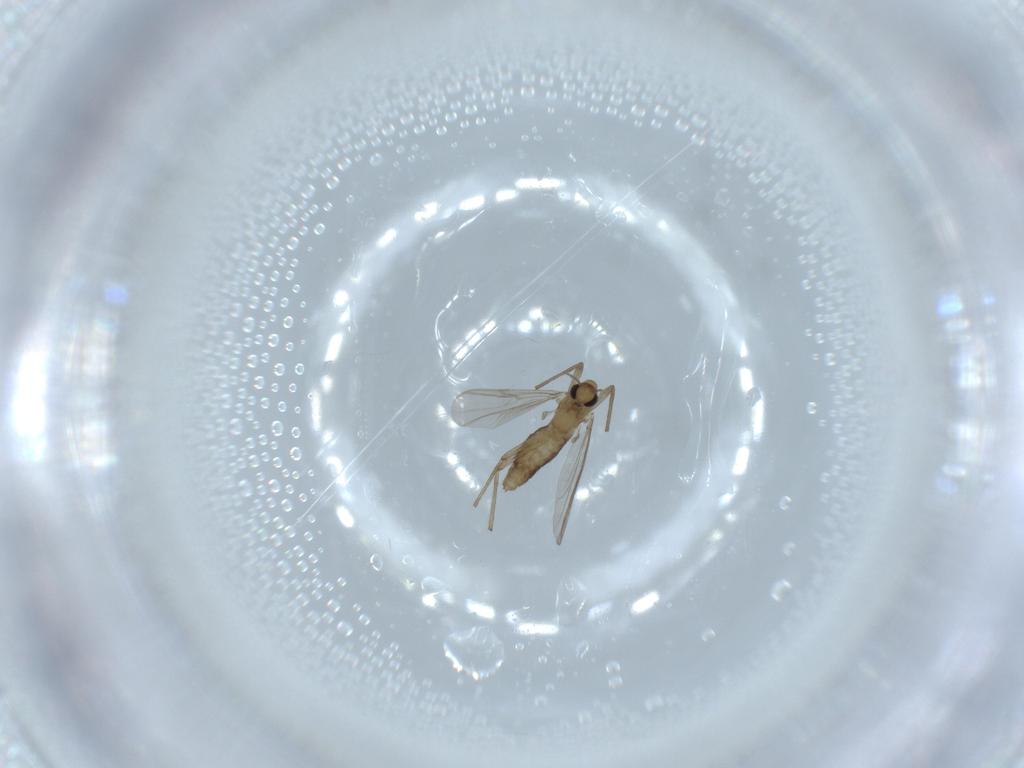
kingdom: Animalia
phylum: Arthropoda
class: Insecta
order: Diptera
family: Chironomidae
